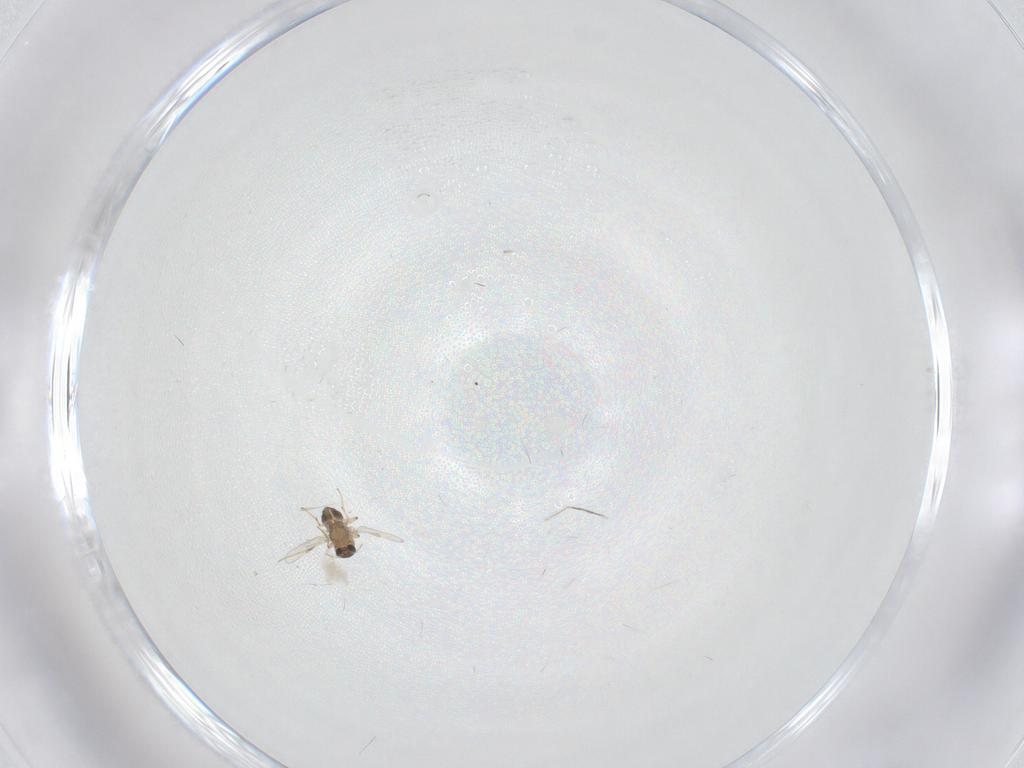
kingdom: Animalia
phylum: Arthropoda
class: Insecta
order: Diptera
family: Cecidomyiidae
